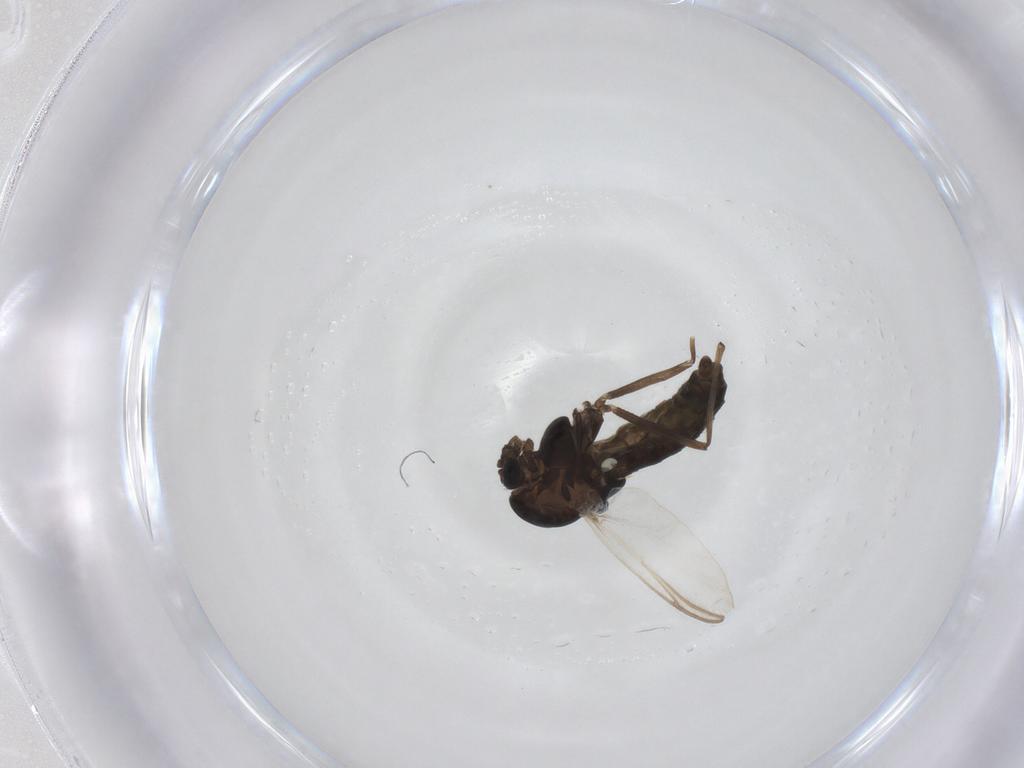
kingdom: Animalia
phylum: Arthropoda
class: Insecta
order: Diptera
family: Chironomidae
